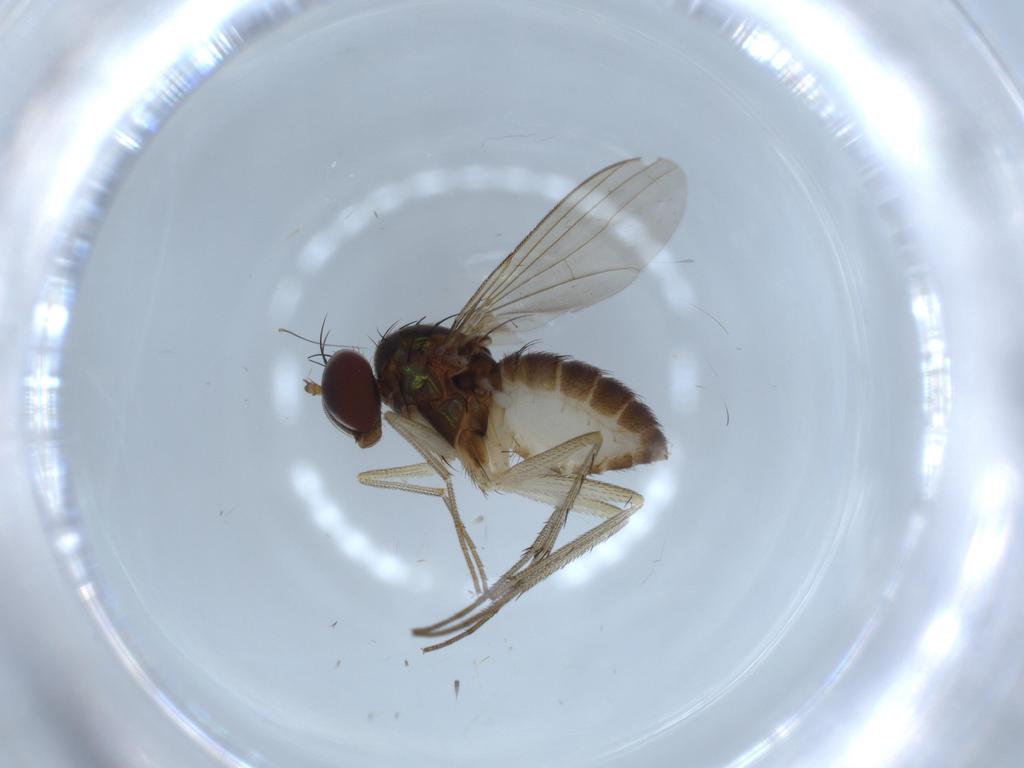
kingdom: Animalia
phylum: Arthropoda
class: Insecta
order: Diptera
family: Dolichopodidae
